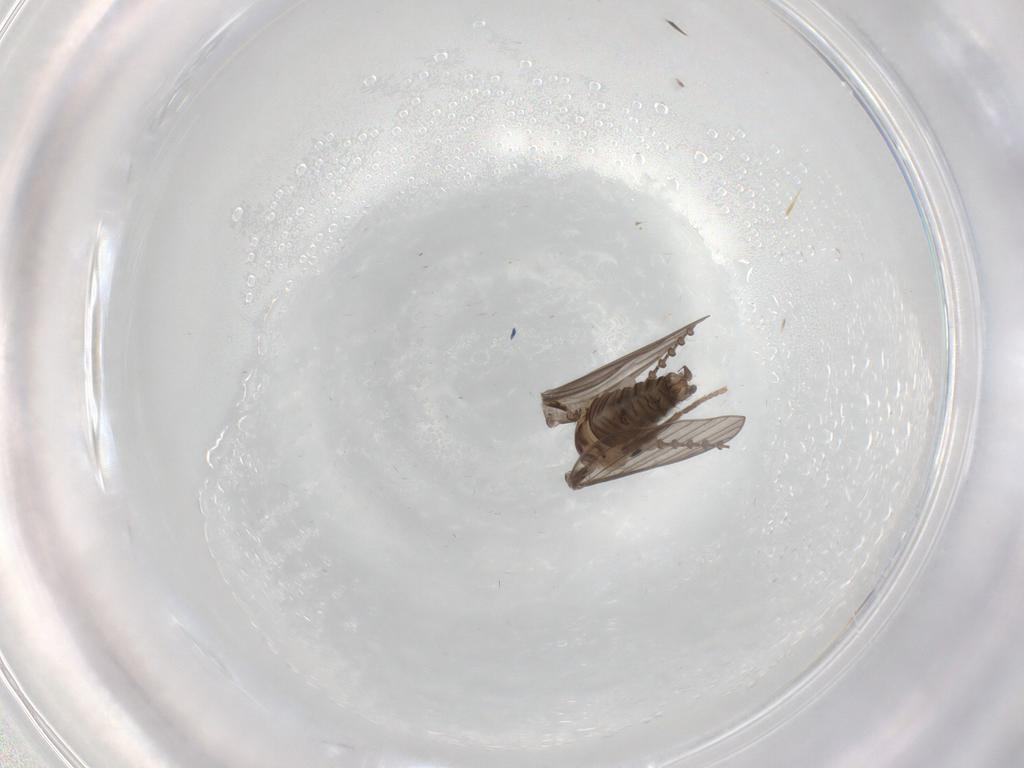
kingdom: Animalia
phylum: Arthropoda
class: Insecta
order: Diptera
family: Psychodidae
